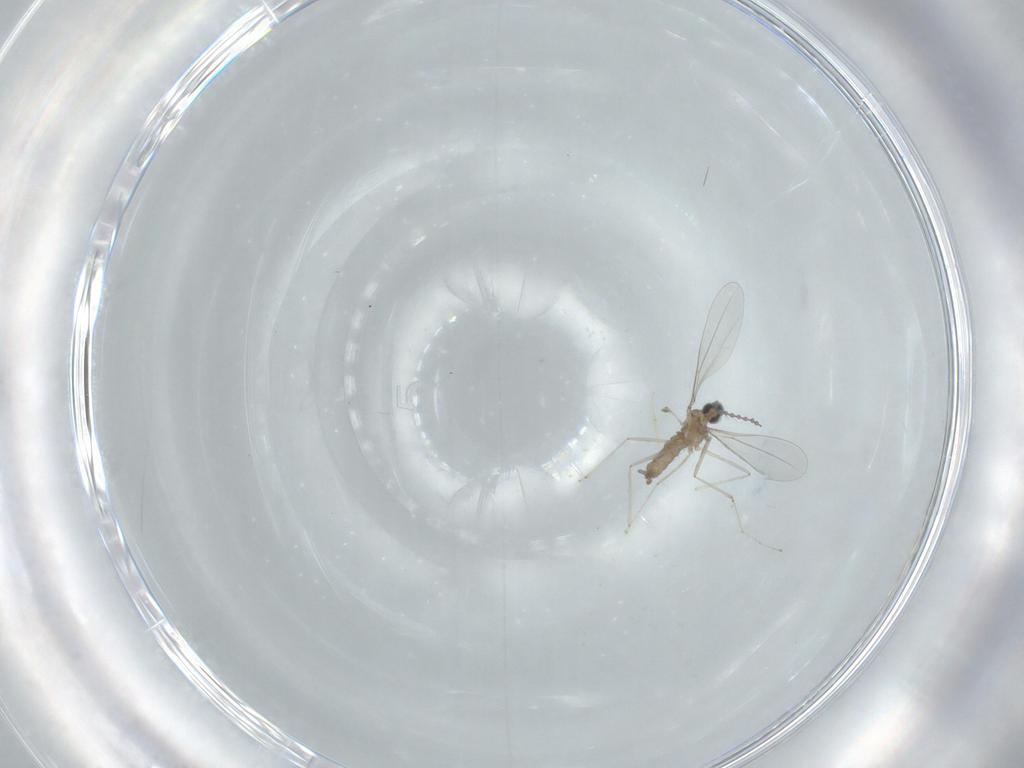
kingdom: Animalia
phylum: Arthropoda
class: Insecta
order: Diptera
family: Cecidomyiidae
